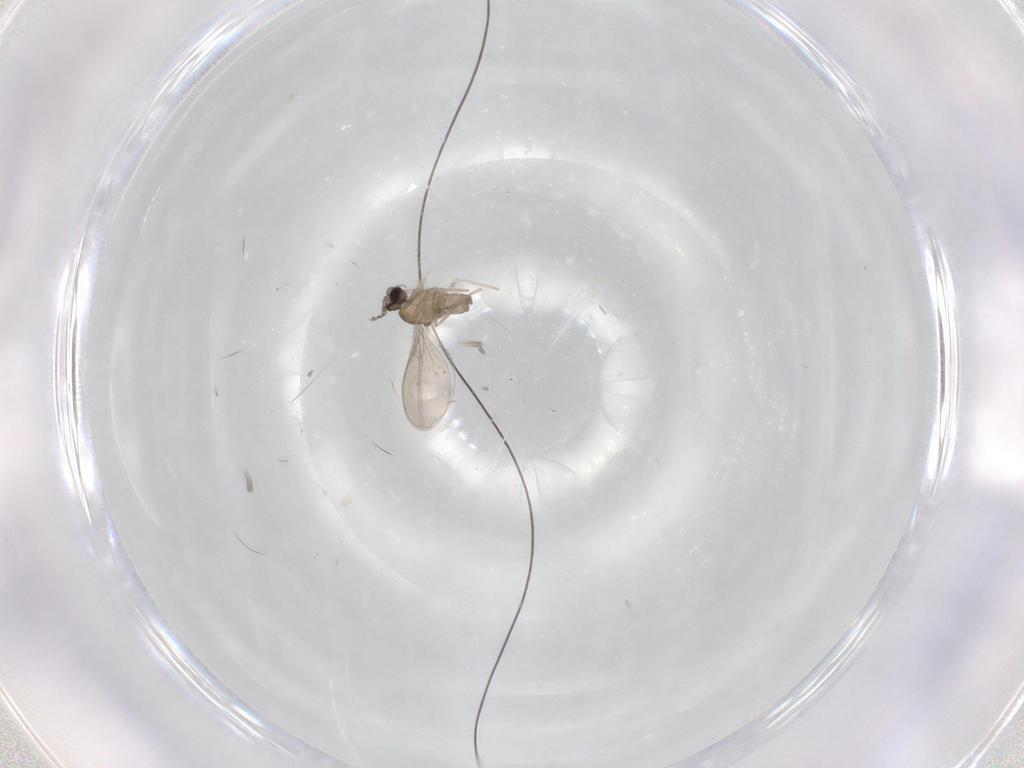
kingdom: Animalia
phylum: Arthropoda
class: Insecta
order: Diptera
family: Cecidomyiidae
